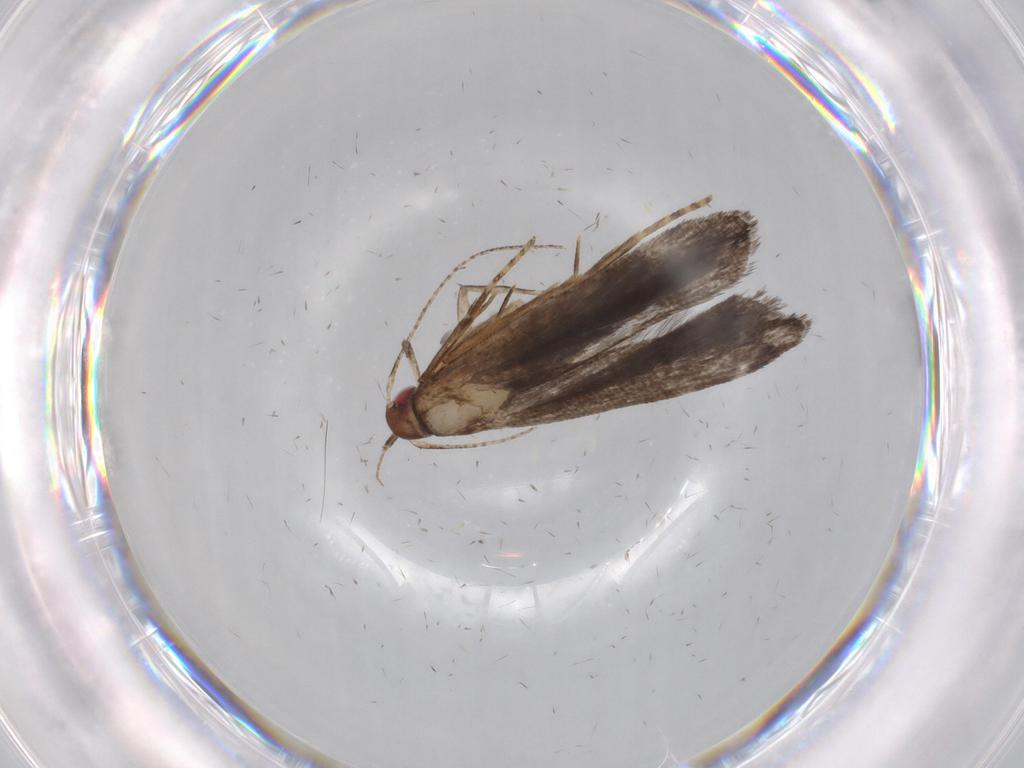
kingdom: Animalia
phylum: Arthropoda
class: Insecta
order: Lepidoptera
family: Gelechiidae
